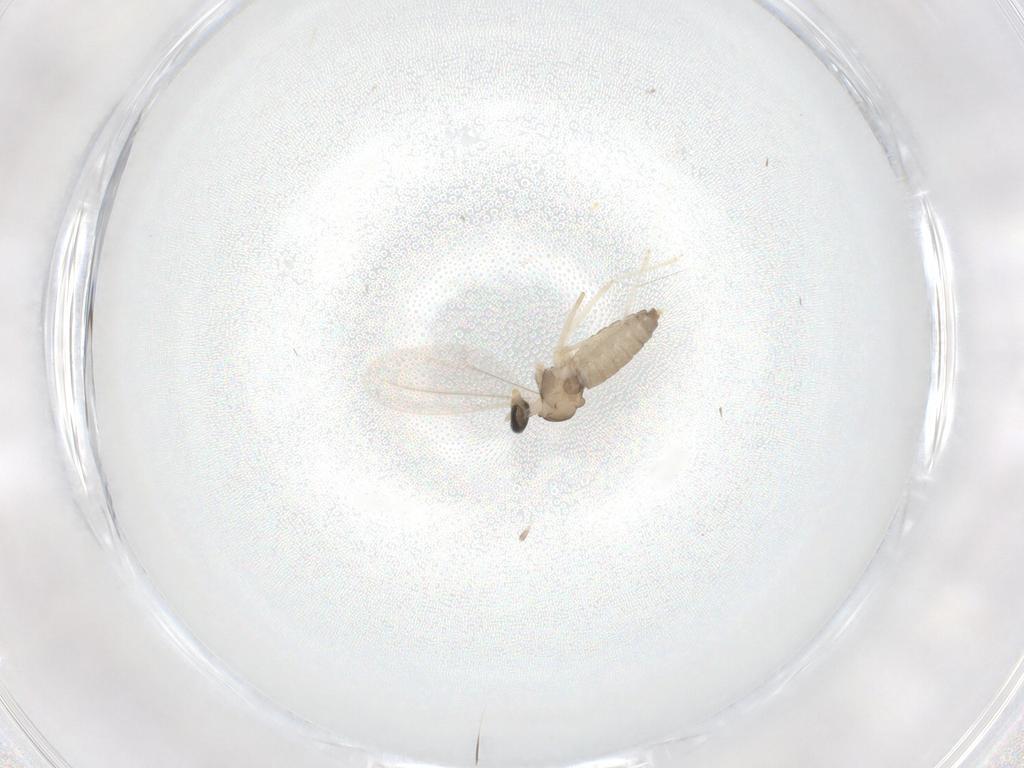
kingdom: Animalia
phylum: Arthropoda
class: Insecta
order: Diptera
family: Cecidomyiidae
